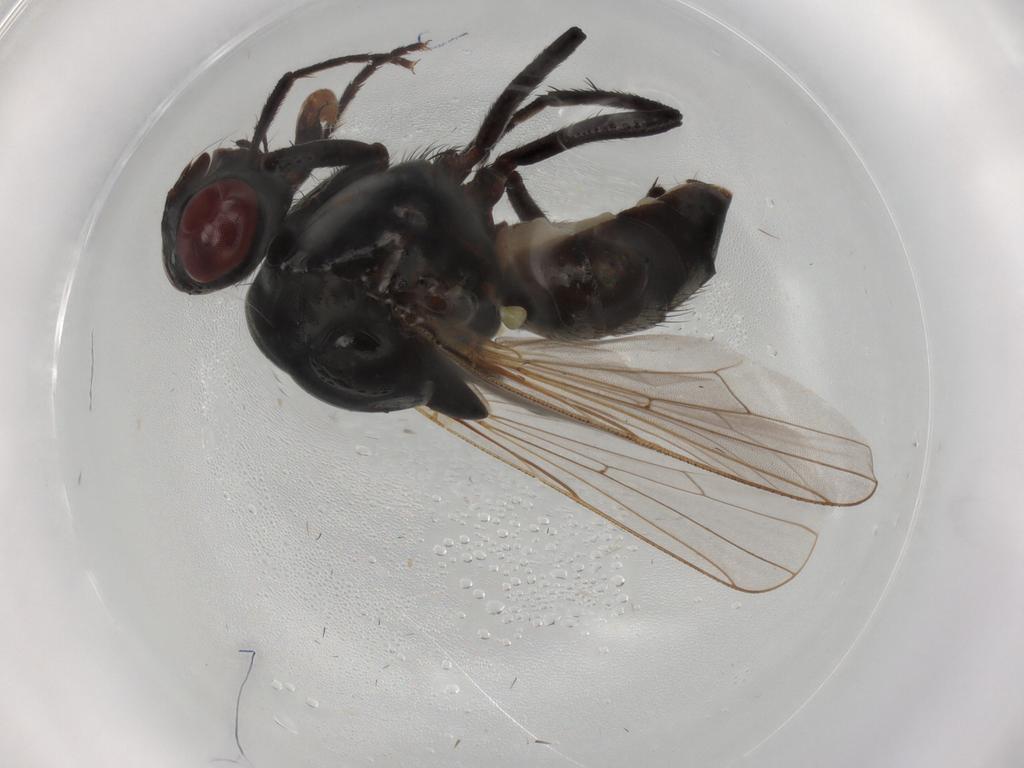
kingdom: Animalia
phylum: Arthropoda
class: Insecta
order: Diptera
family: Anthomyiidae
